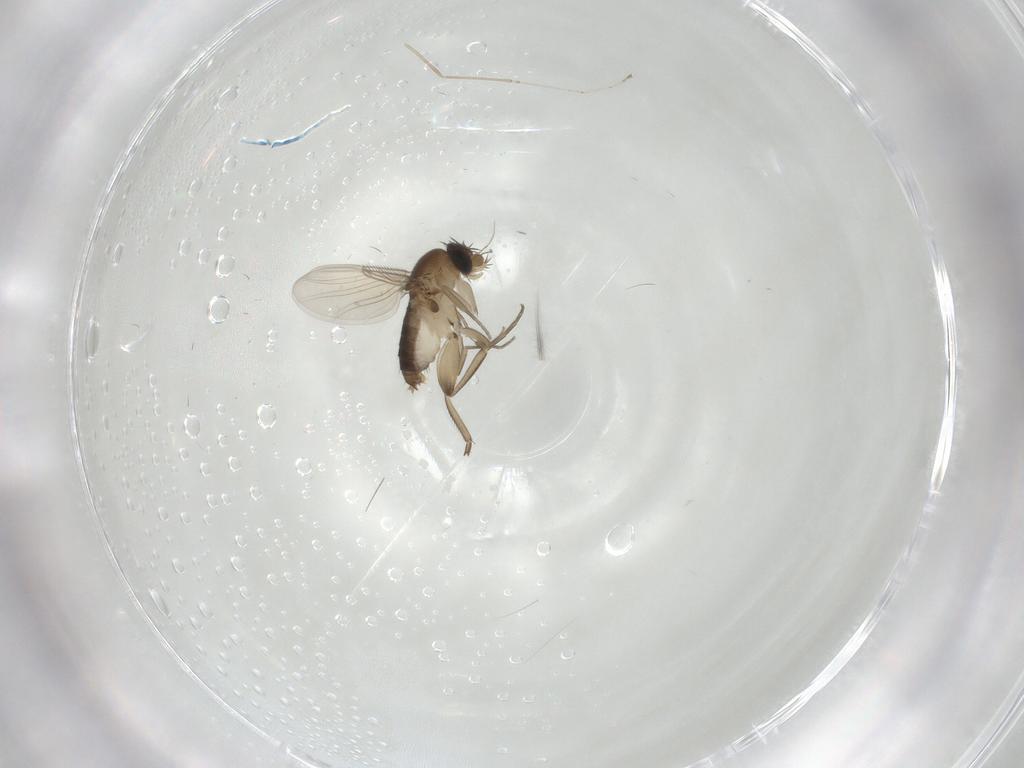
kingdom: Animalia
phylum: Arthropoda
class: Insecta
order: Diptera
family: Phoridae
